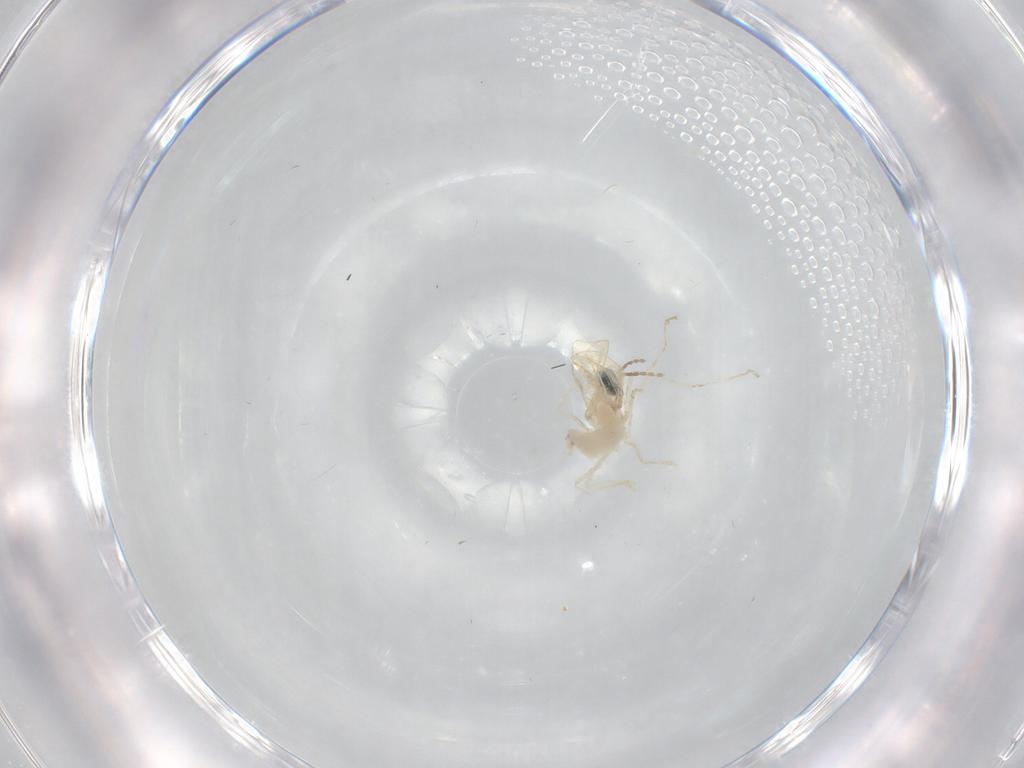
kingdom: Animalia
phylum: Arthropoda
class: Insecta
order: Diptera
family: Cecidomyiidae
